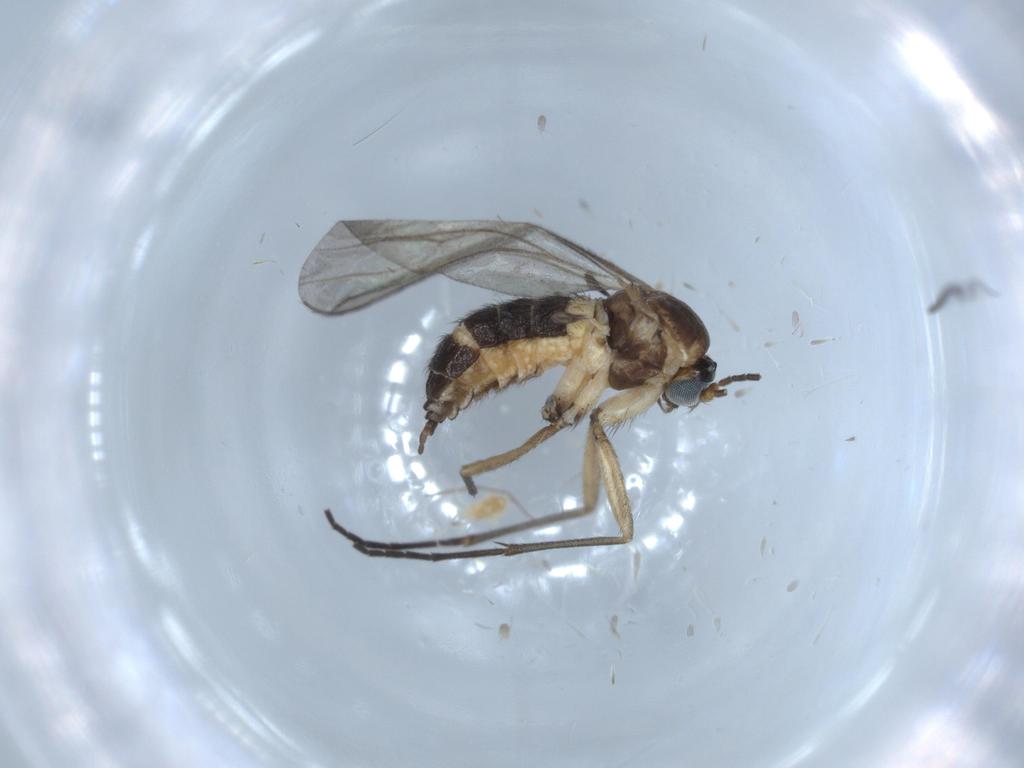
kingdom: Animalia
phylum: Arthropoda
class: Insecta
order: Diptera
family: Sciaridae
